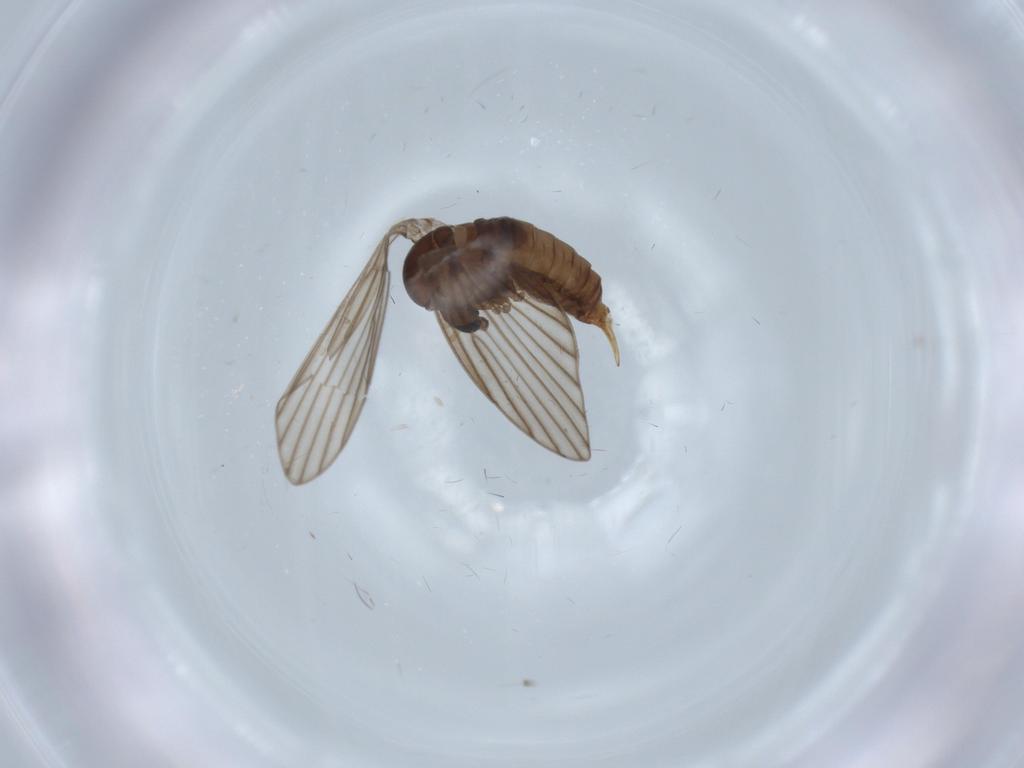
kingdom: Animalia
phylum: Arthropoda
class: Insecta
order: Diptera
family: Psychodidae
